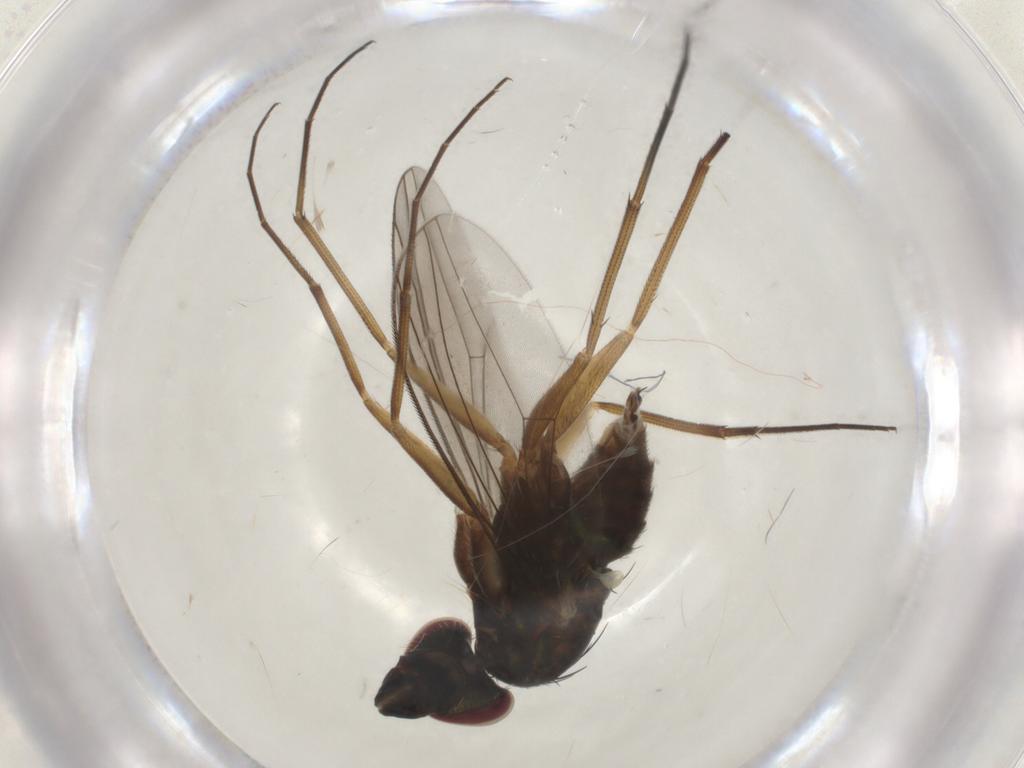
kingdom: Animalia
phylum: Arthropoda
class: Insecta
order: Diptera
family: Dolichopodidae
